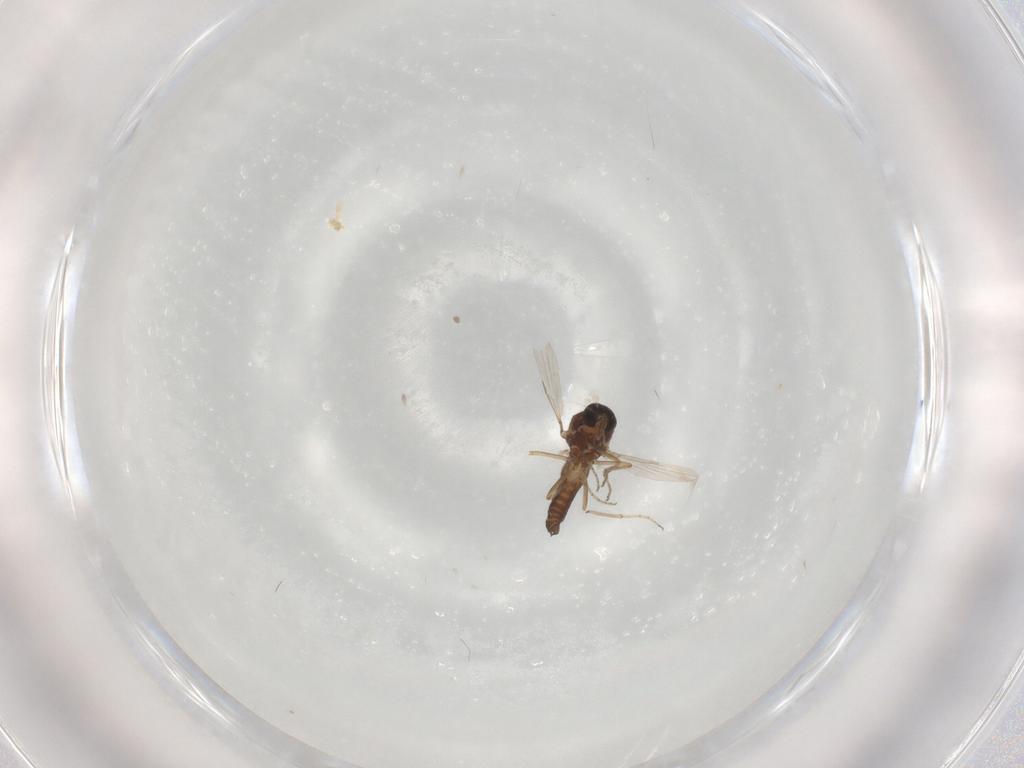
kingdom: Animalia
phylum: Arthropoda
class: Insecta
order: Diptera
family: Ceratopogonidae
